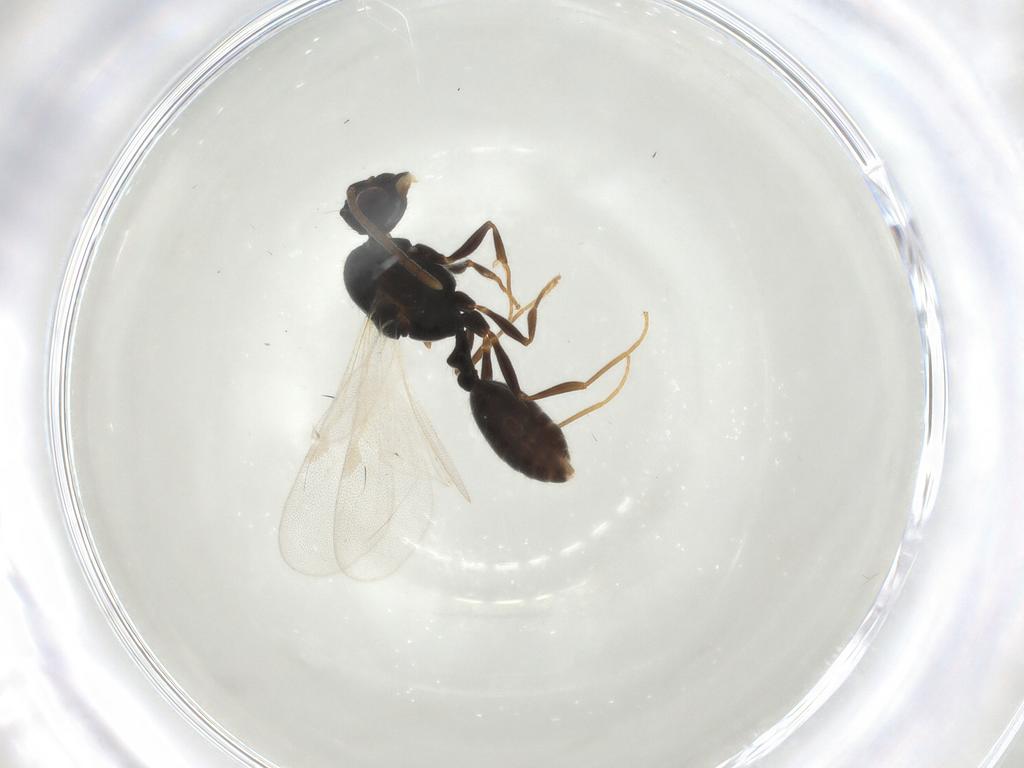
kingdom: Animalia
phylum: Arthropoda
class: Insecta
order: Hymenoptera
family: Formicidae
